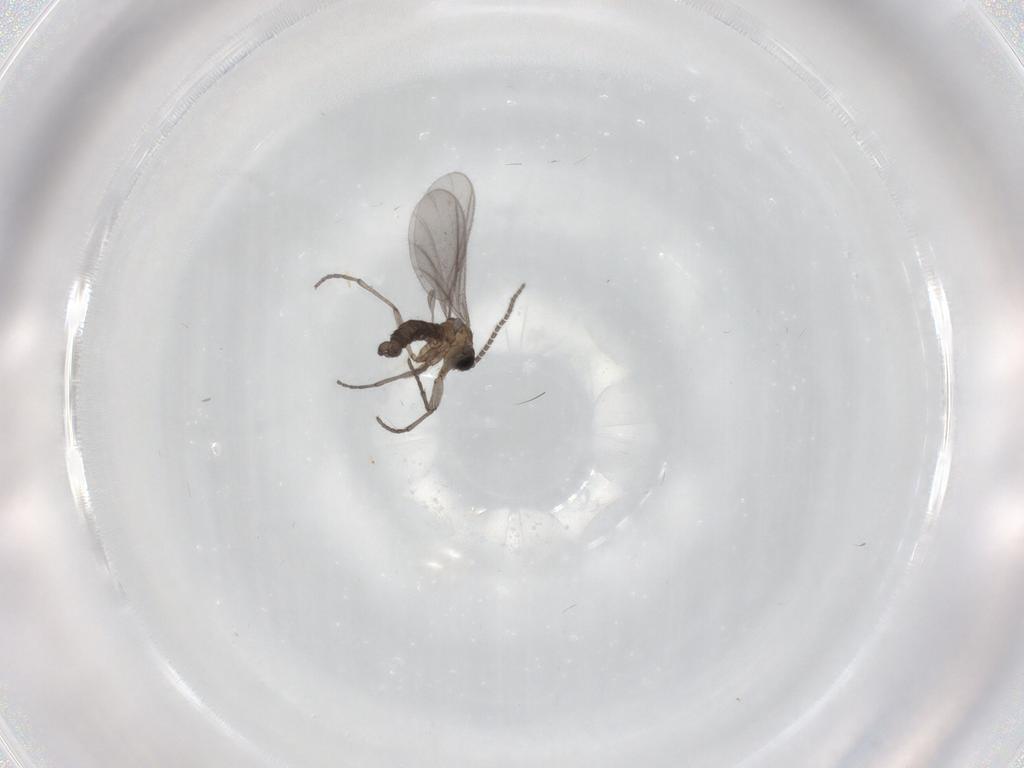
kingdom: Animalia
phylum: Arthropoda
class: Insecta
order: Diptera
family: Sciaridae
